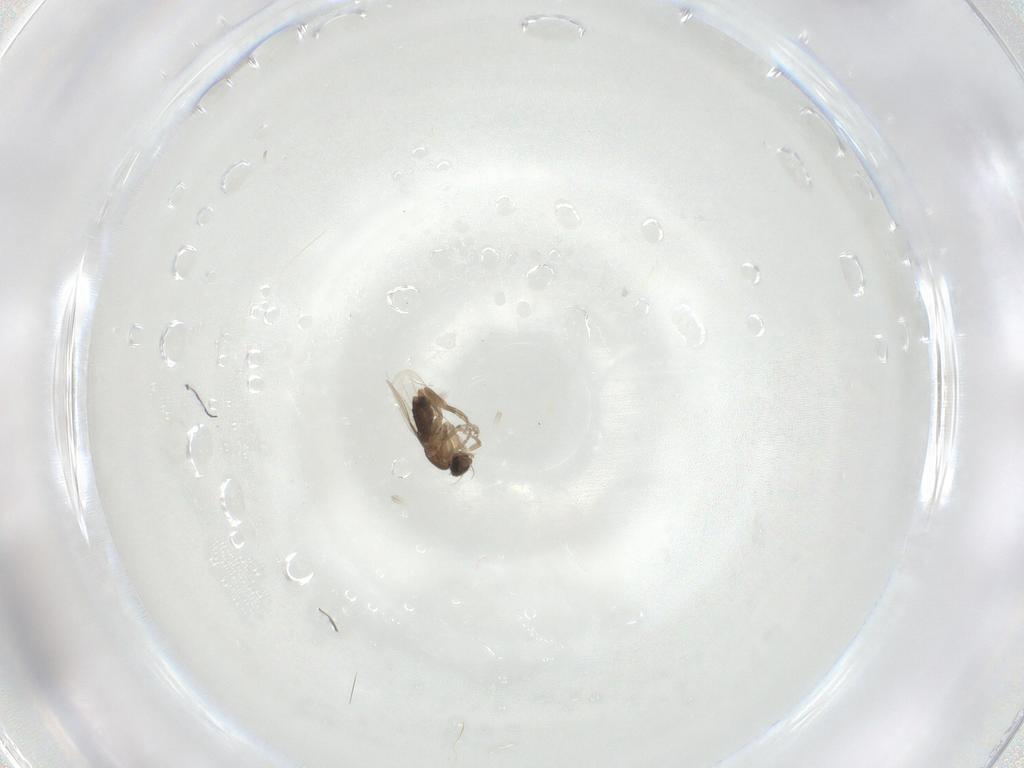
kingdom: Animalia
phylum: Arthropoda
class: Insecta
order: Diptera
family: Phoridae
